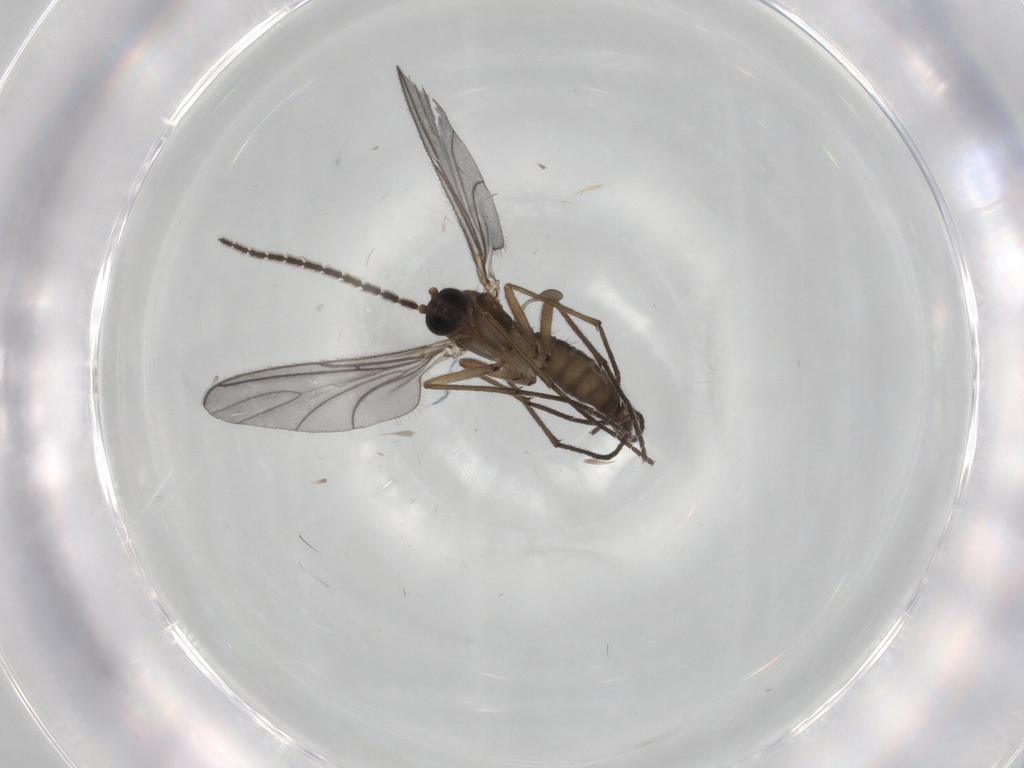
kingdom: Animalia
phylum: Arthropoda
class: Insecta
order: Diptera
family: Sciaridae
